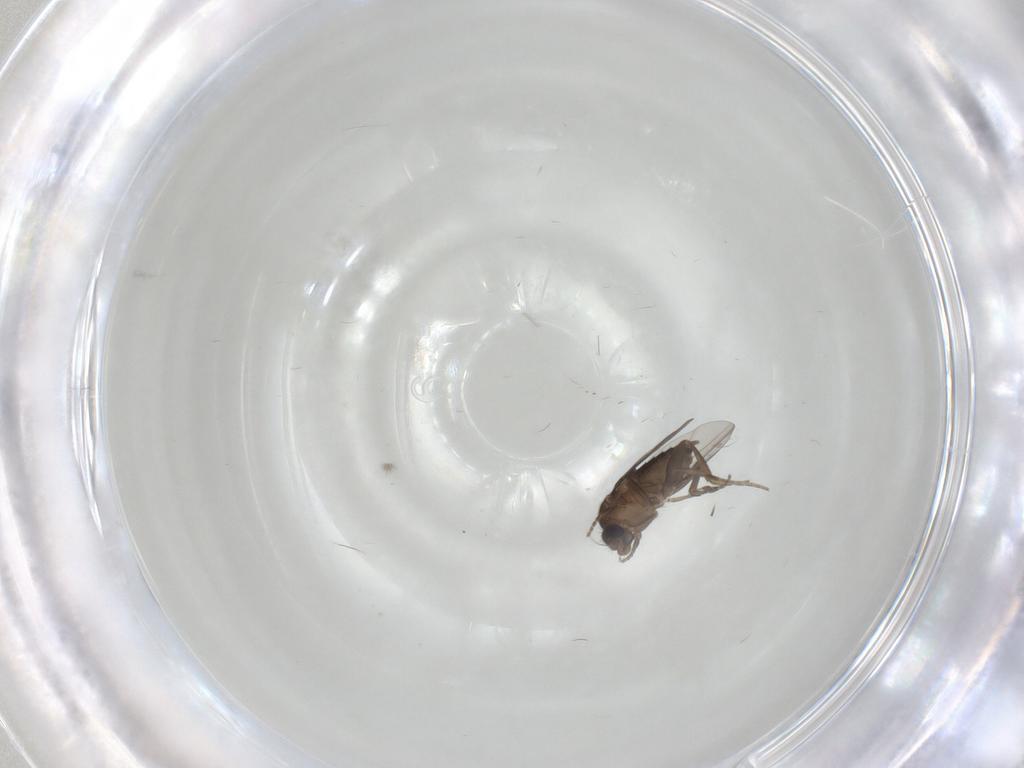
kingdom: Animalia
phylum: Arthropoda
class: Insecta
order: Diptera
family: Phoridae
